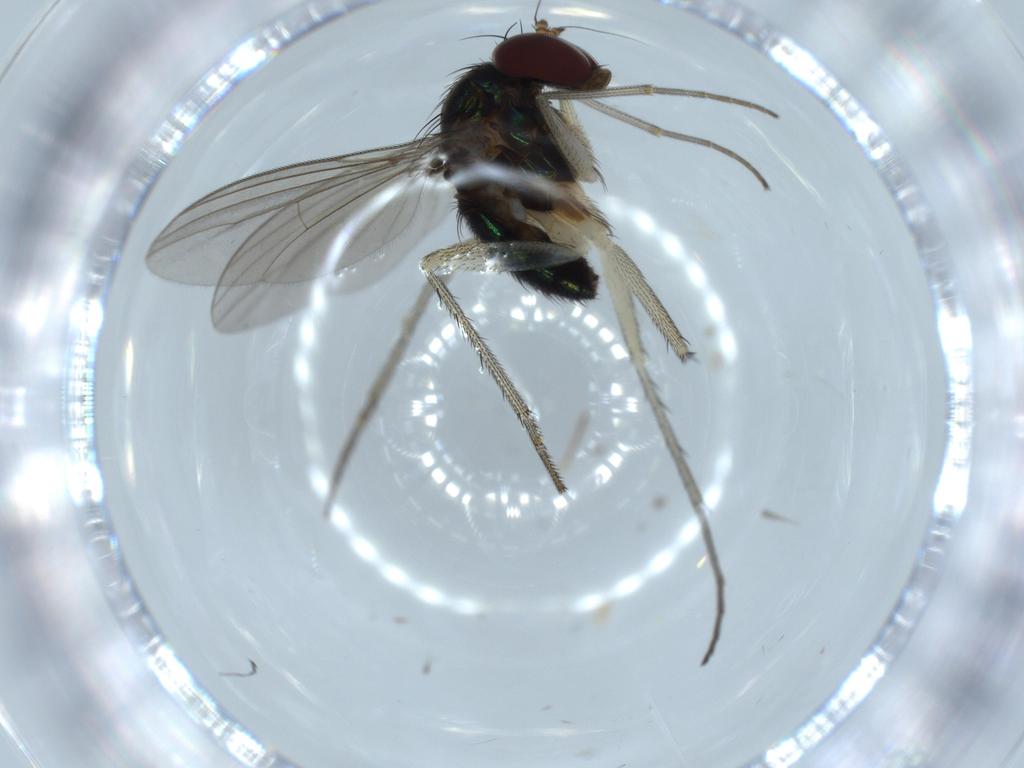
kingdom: Animalia
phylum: Arthropoda
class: Insecta
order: Diptera
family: Dolichopodidae
